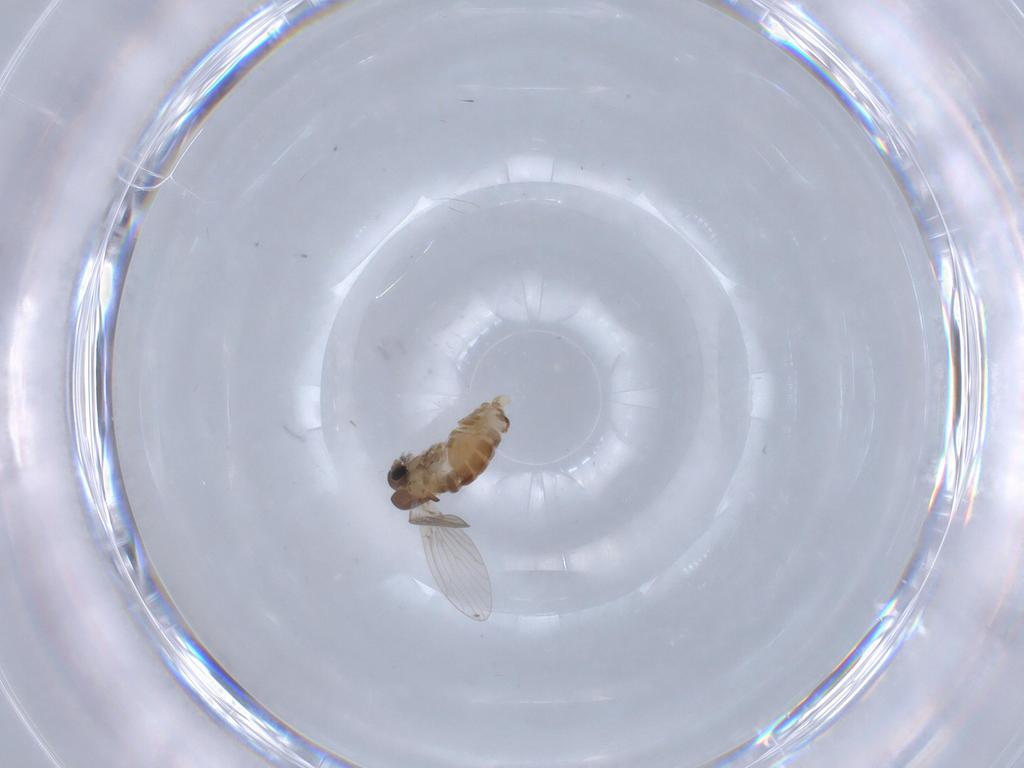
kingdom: Animalia
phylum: Arthropoda
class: Insecta
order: Diptera
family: Psychodidae
